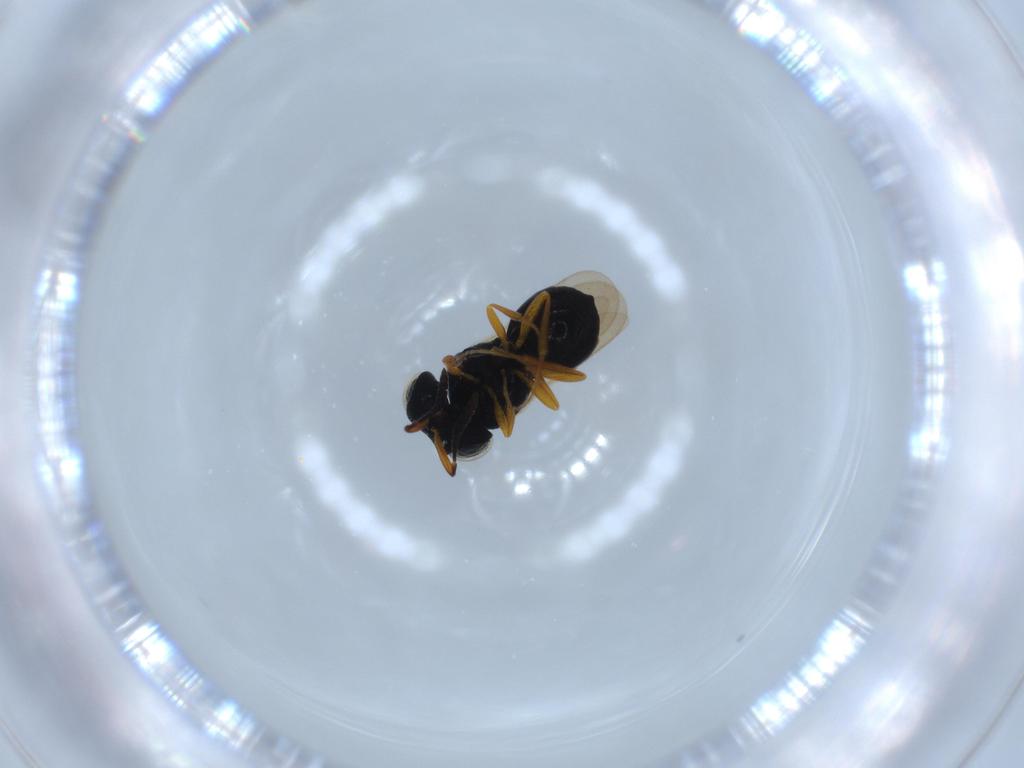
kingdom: Animalia
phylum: Arthropoda
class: Insecta
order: Hymenoptera
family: Scelionidae
